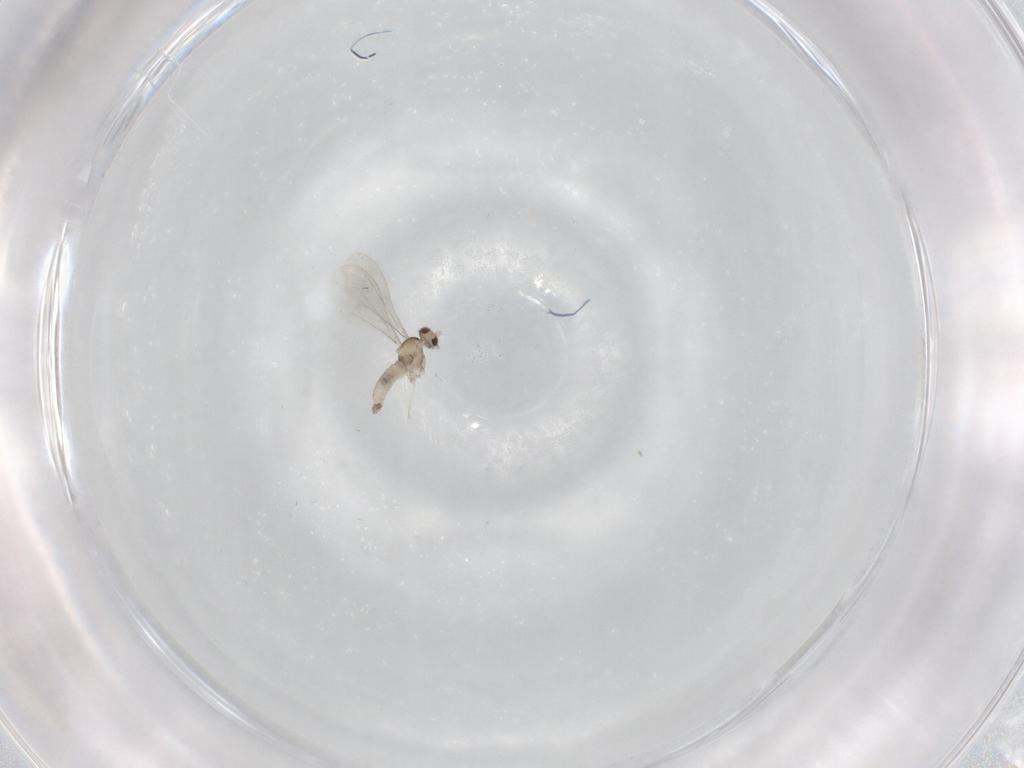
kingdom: Animalia
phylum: Arthropoda
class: Insecta
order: Diptera
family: Cecidomyiidae
